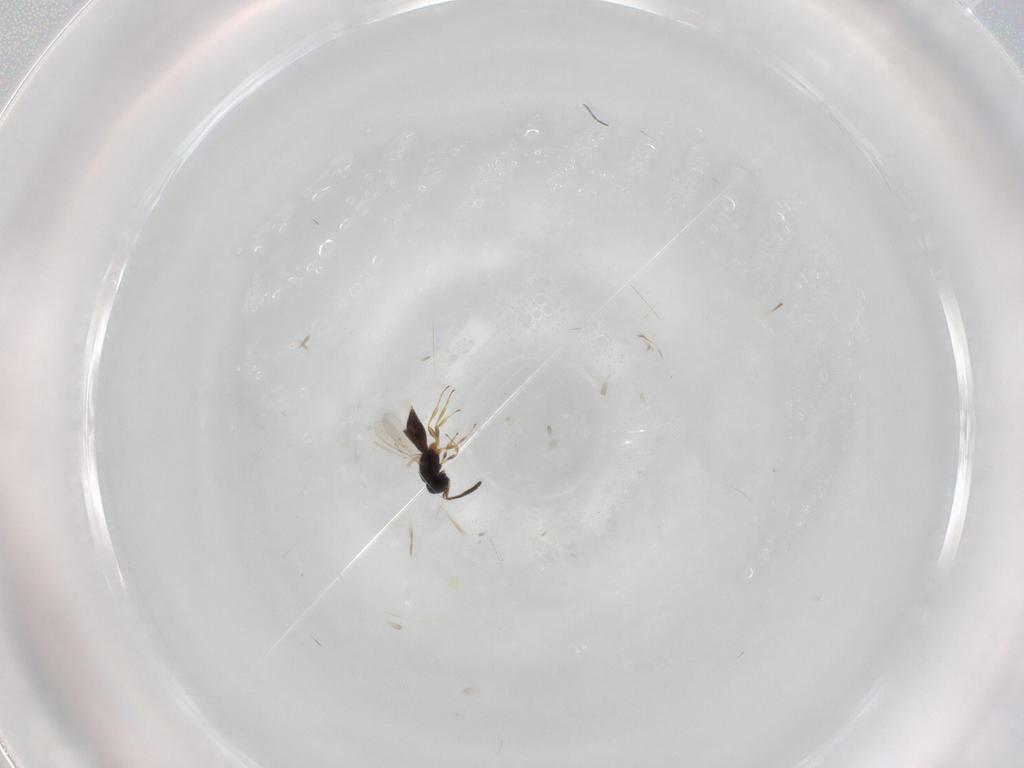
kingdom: Animalia
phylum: Arthropoda
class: Insecta
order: Hymenoptera
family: Scelionidae
